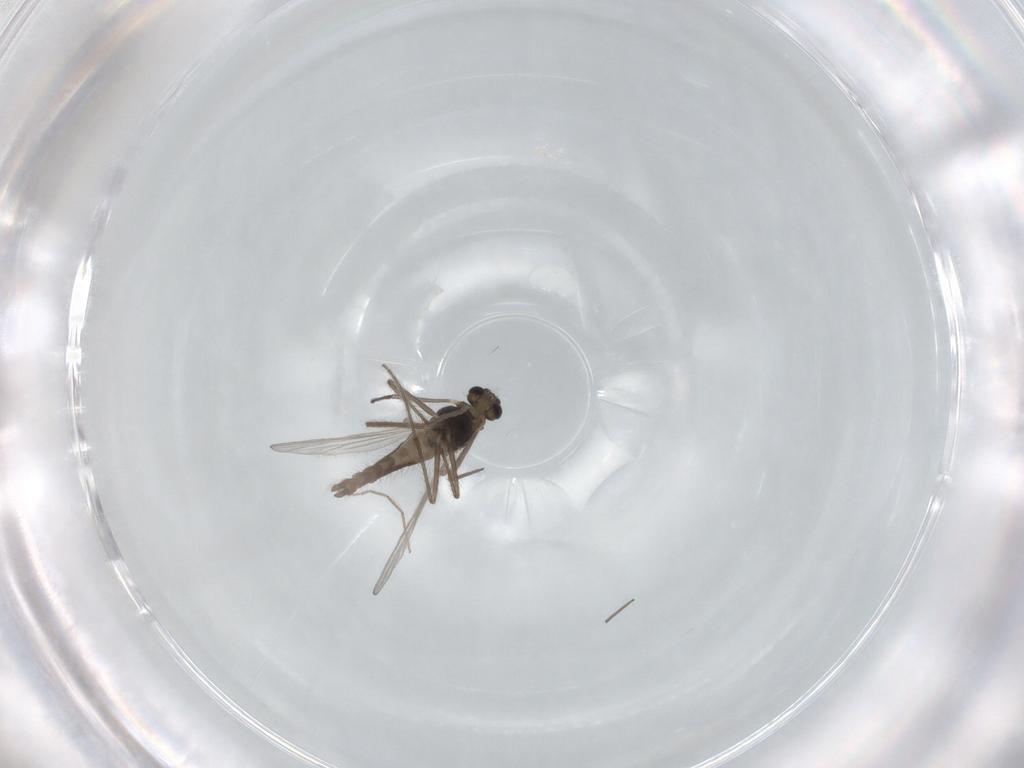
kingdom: Animalia
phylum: Arthropoda
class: Insecta
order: Diptera
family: Chironomidae
